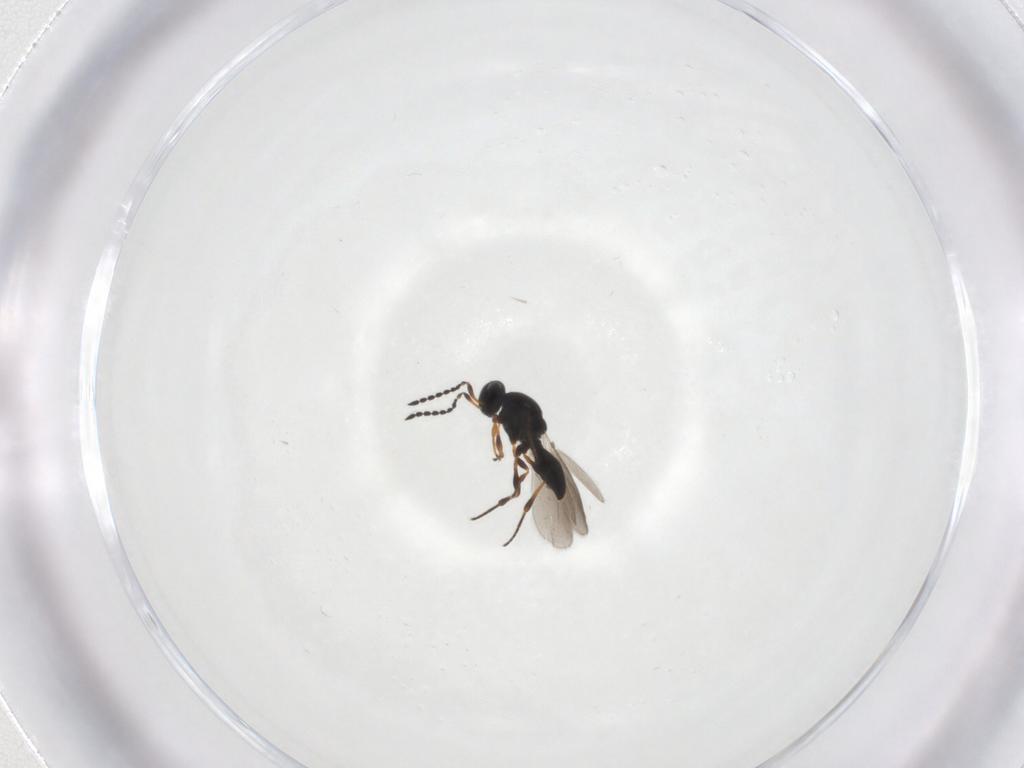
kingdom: Animalia
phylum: Arthropoda
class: Insecta
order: Hymenoptera
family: Platygastridae
